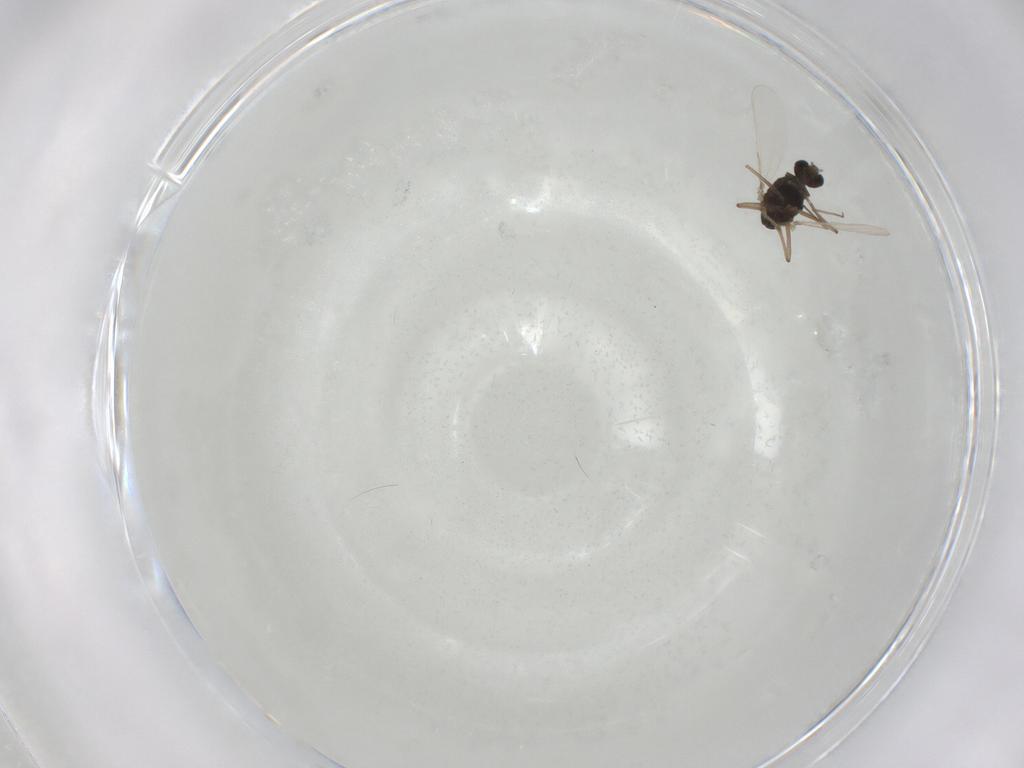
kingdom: Animalia
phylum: Arthropoda
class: Insecta
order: Diptera
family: Chironomidae
